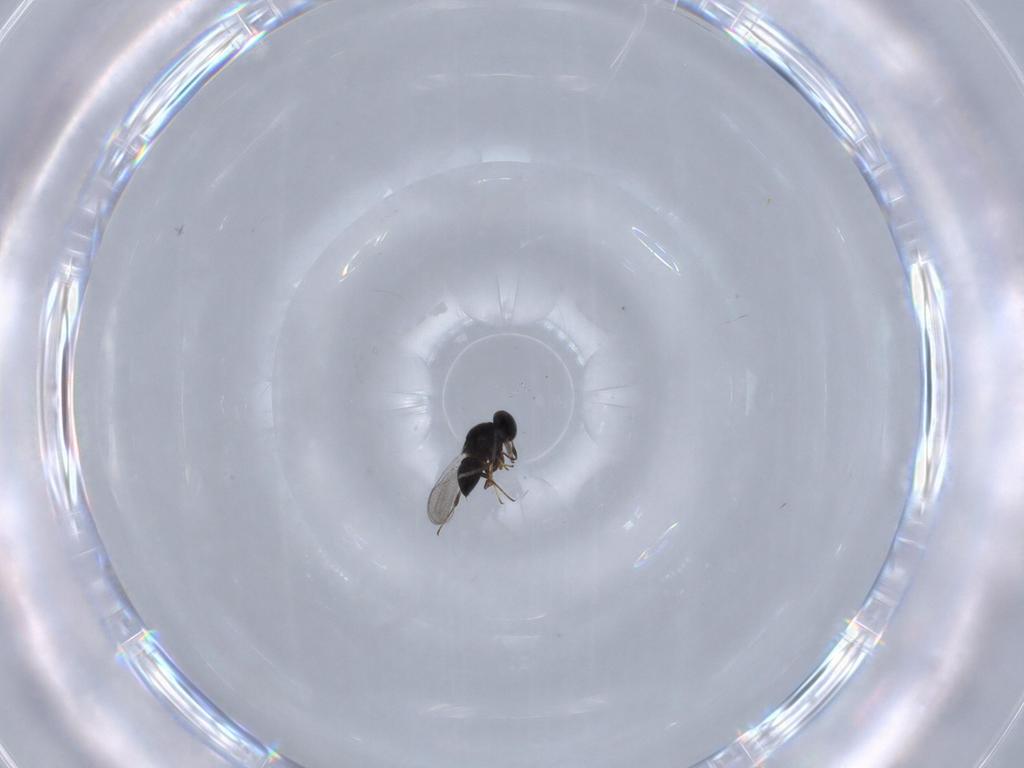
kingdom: Animalia
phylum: Arthropoda
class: Insecta
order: Hymenoptera
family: Platygastridae
